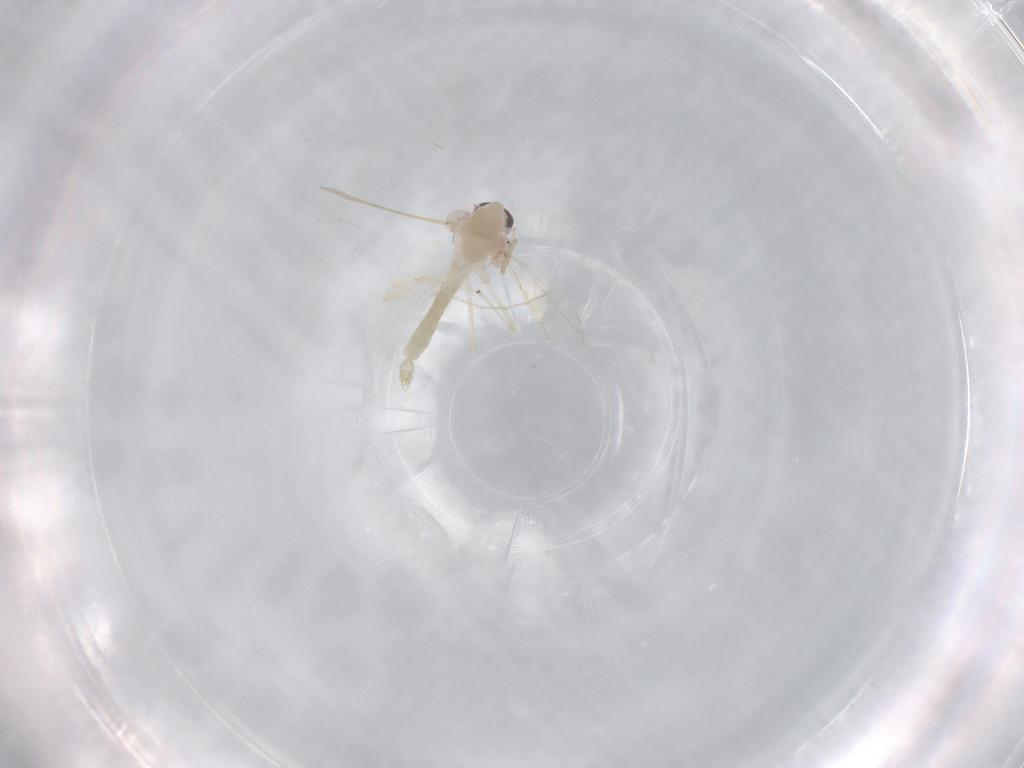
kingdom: Animalia
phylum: Arthropoda
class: Insecta
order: Diptera
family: Chironomidae
